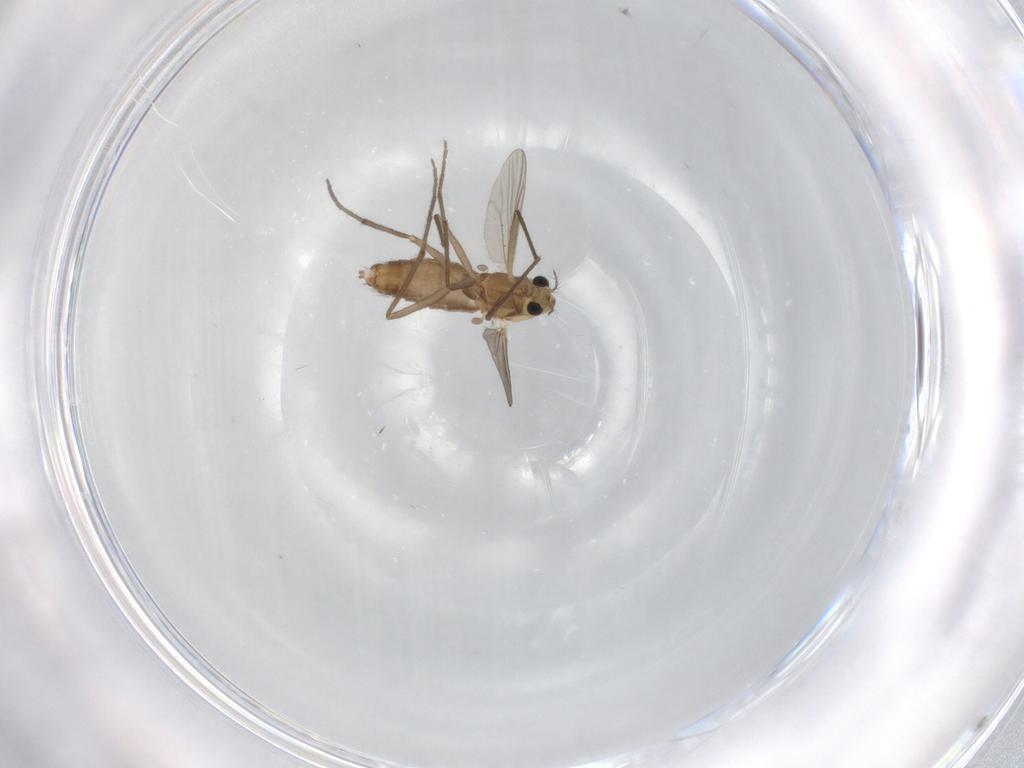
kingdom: Animalia
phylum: Arthropoda
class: Insecta
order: Diptera
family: Chironomidae
